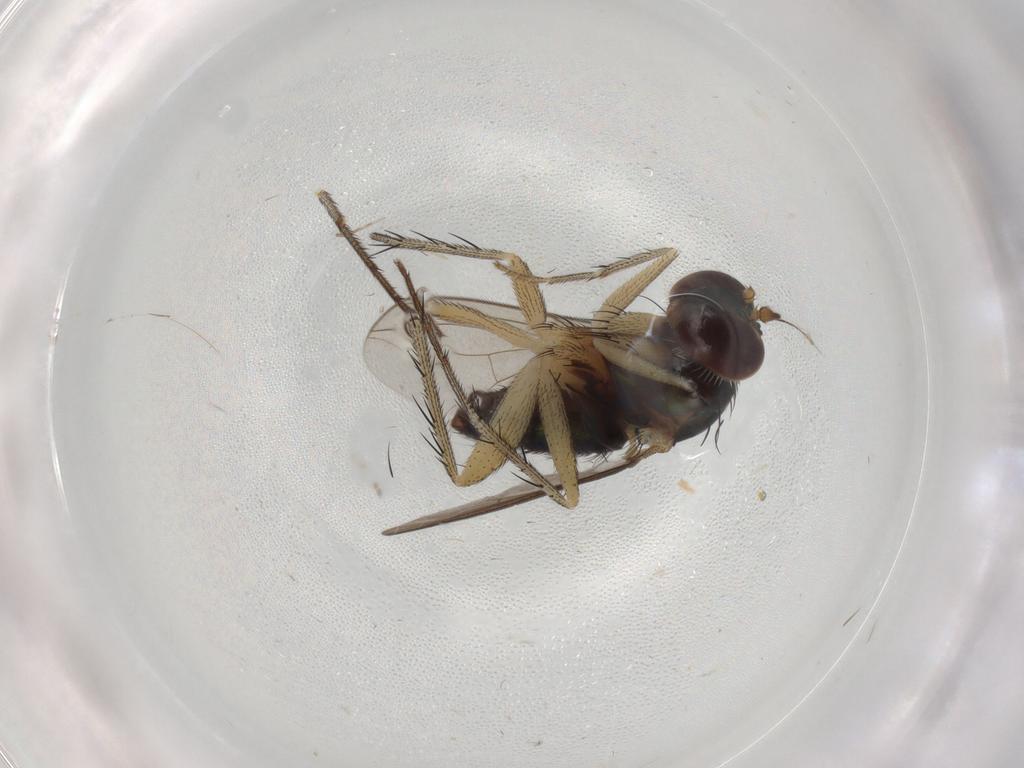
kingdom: Animalia
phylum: Arthropoda
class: Insecta
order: Diptera
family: Dolichopodidae
